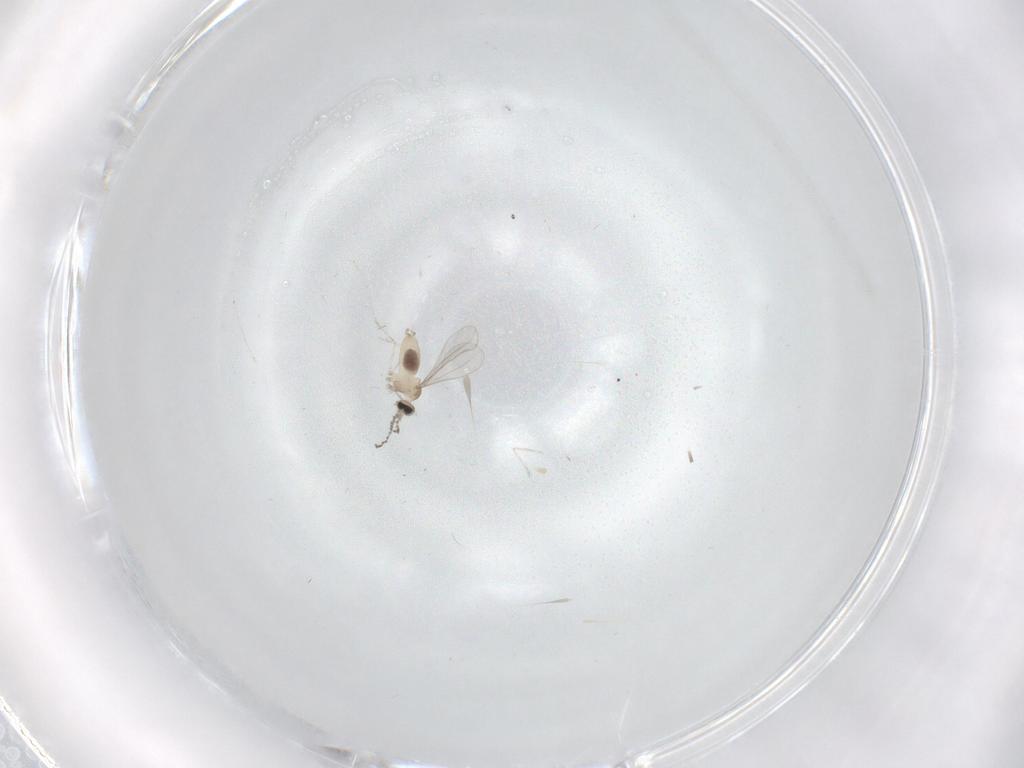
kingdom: Animalia
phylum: Arthropoda
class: Insecta
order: Diptera
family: Cecidomyiidae
